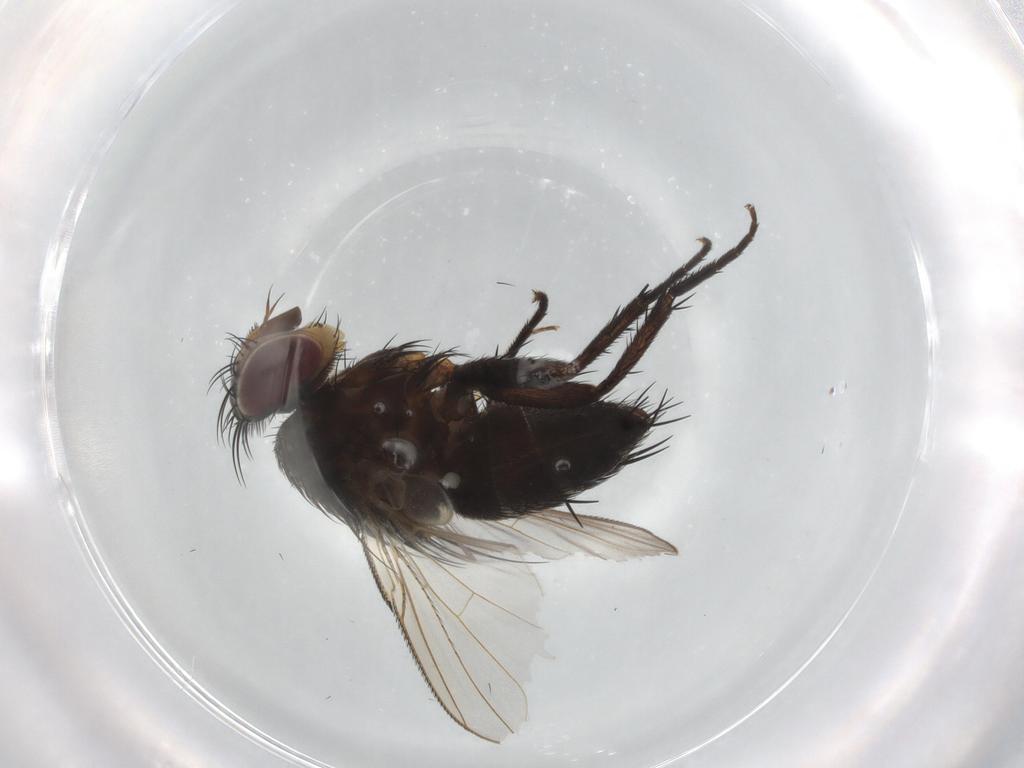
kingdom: Animalia
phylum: Arthropoda
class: Insecta
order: Diptera
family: Tachinidae
